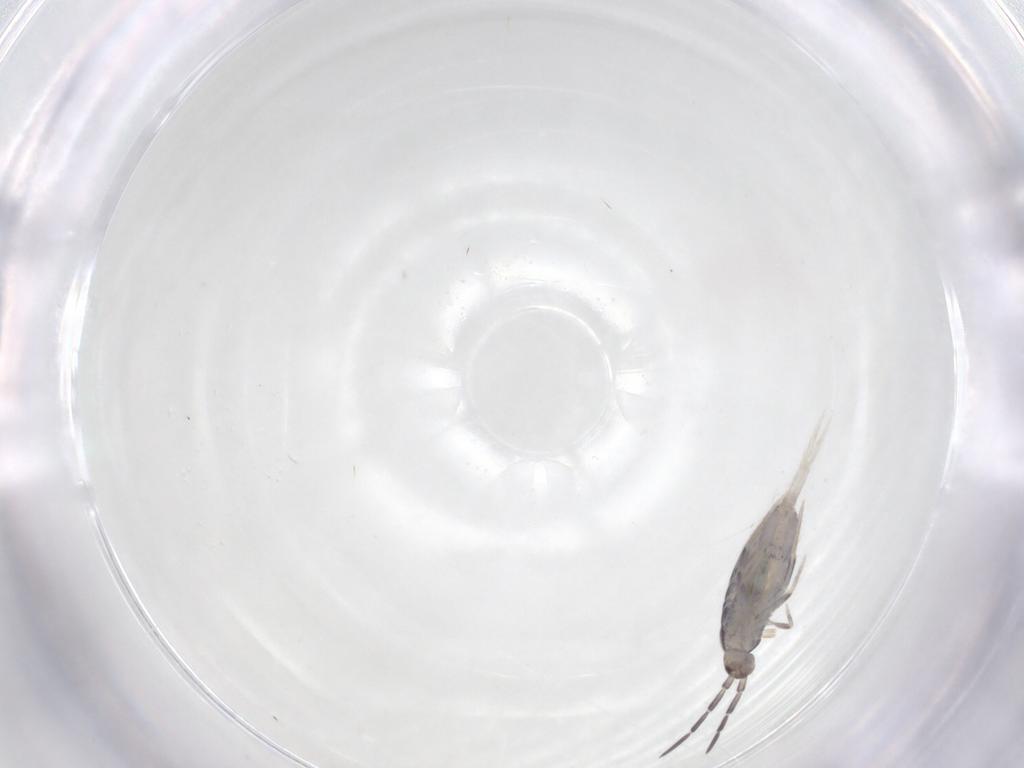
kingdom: Animalia
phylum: Arthropoda
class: Collembola
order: Poduromorpha
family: Hypogastruridae
